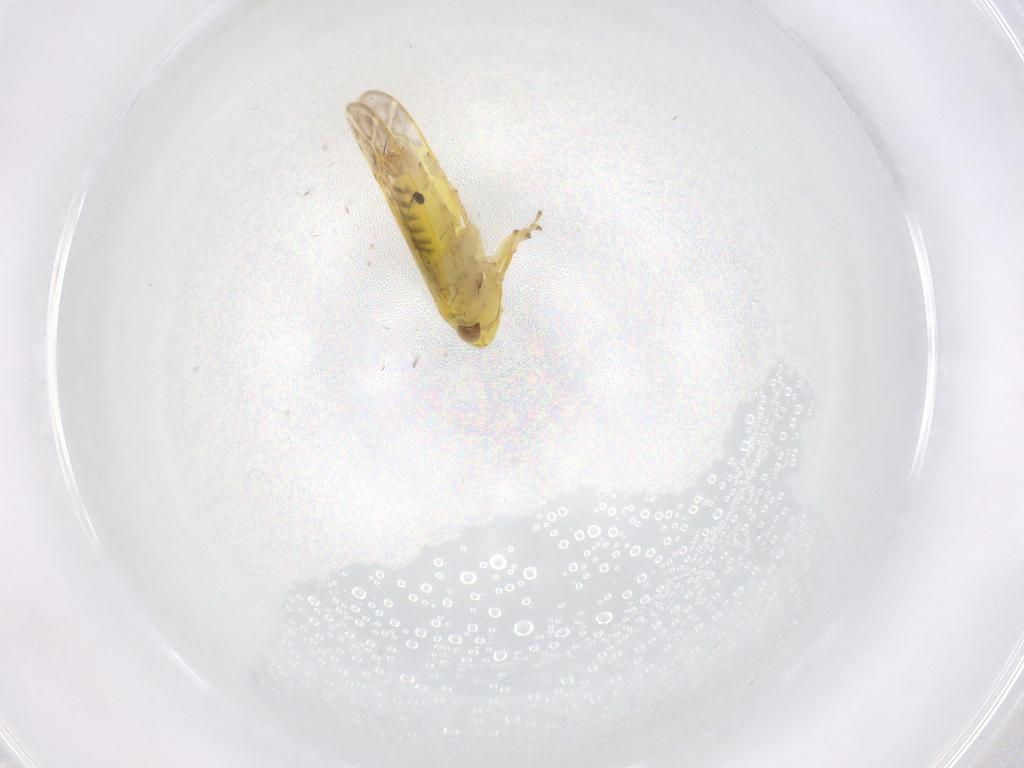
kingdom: Animalia
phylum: Arthropoda
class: Insecta
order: Hemiptera
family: Cicadellidae
